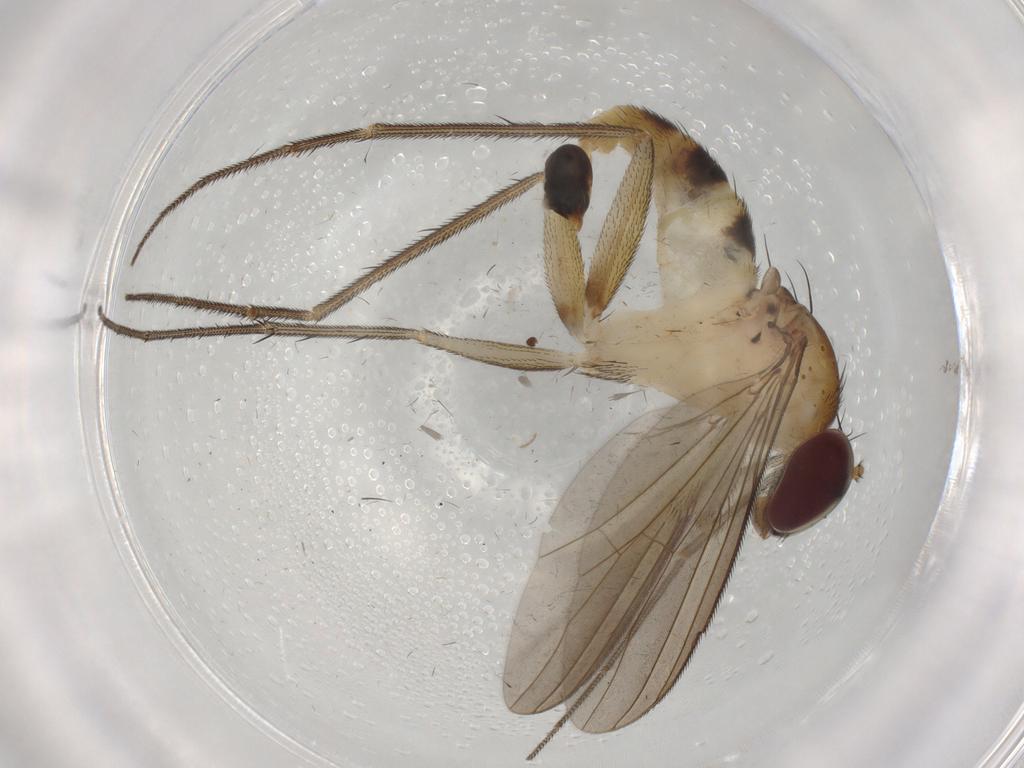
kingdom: Animalia
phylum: Arthropoda
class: Insecta
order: Diptera
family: Dolichopodidae
